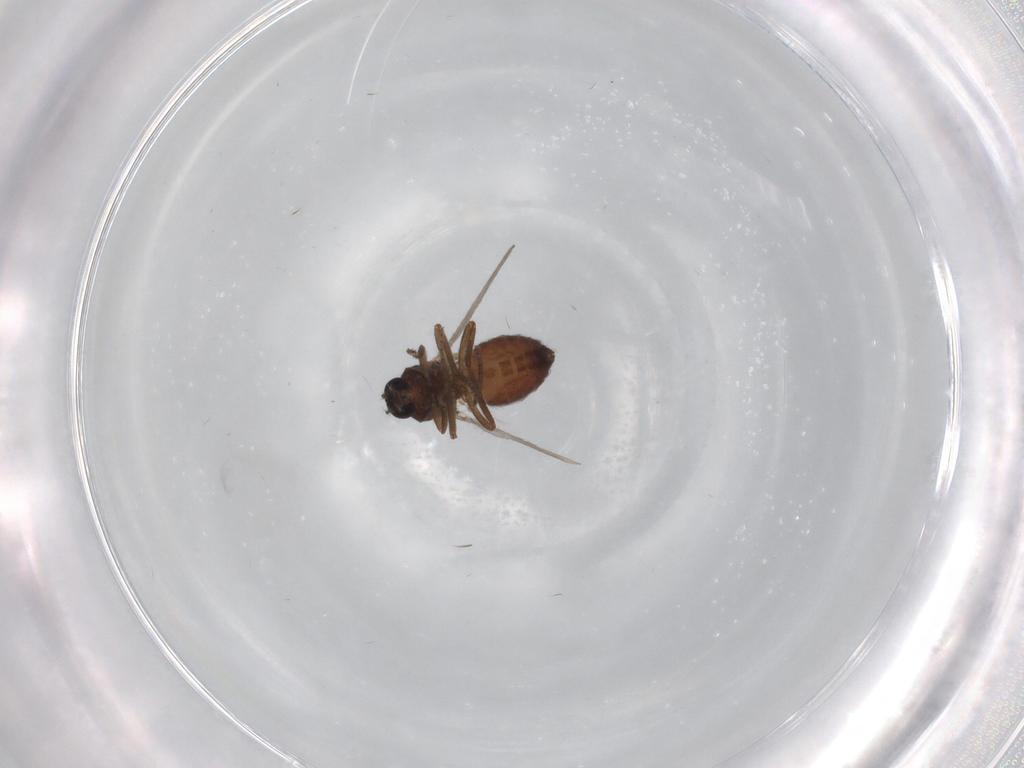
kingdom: Animalia
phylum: Arthropoda
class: Insecta
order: Diptera
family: Ceratopogonidae
